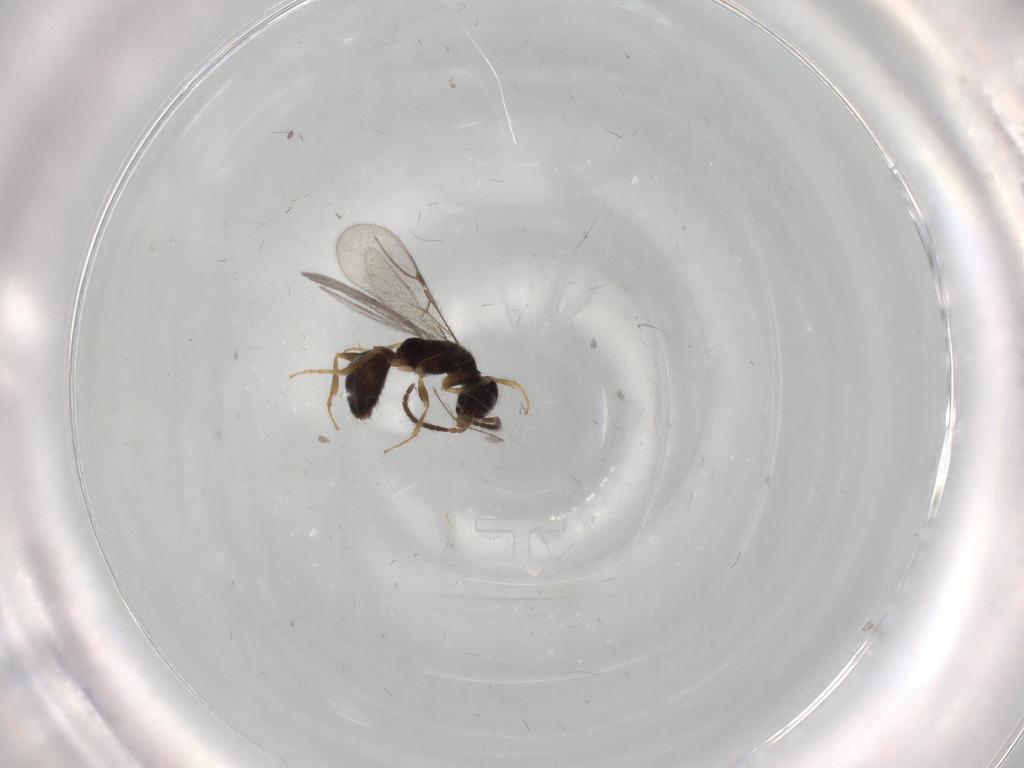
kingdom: Animalia
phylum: Arthropoda
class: Insecta
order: Hymenoptera
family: Bethylidae
